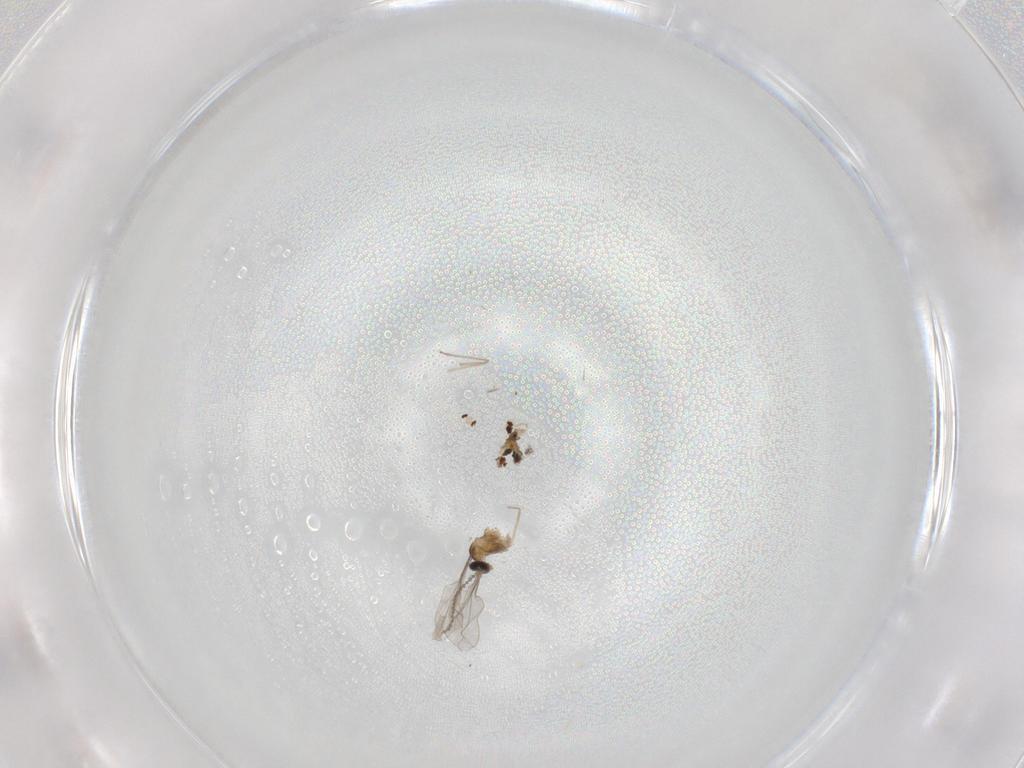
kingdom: Animalia
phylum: Arthropoda
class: Insecta
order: Diptera
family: Cecidomyiidae
